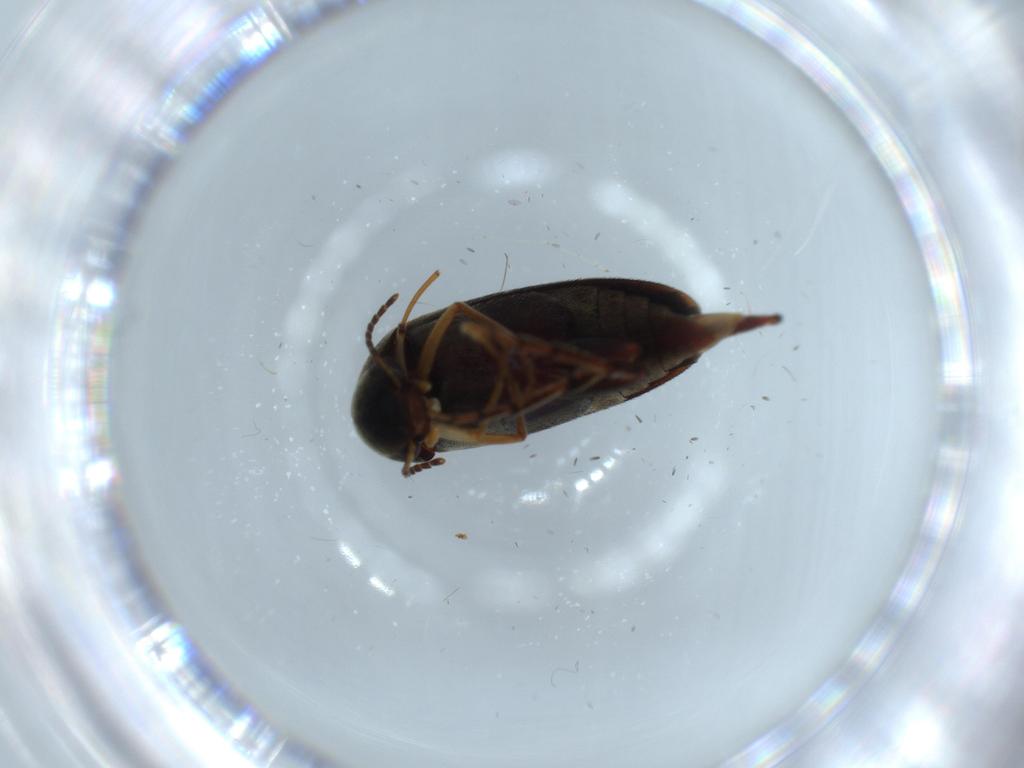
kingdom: Animalia
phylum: Arthropoda
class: Insecta
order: Coleoptera
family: Mordellidae
